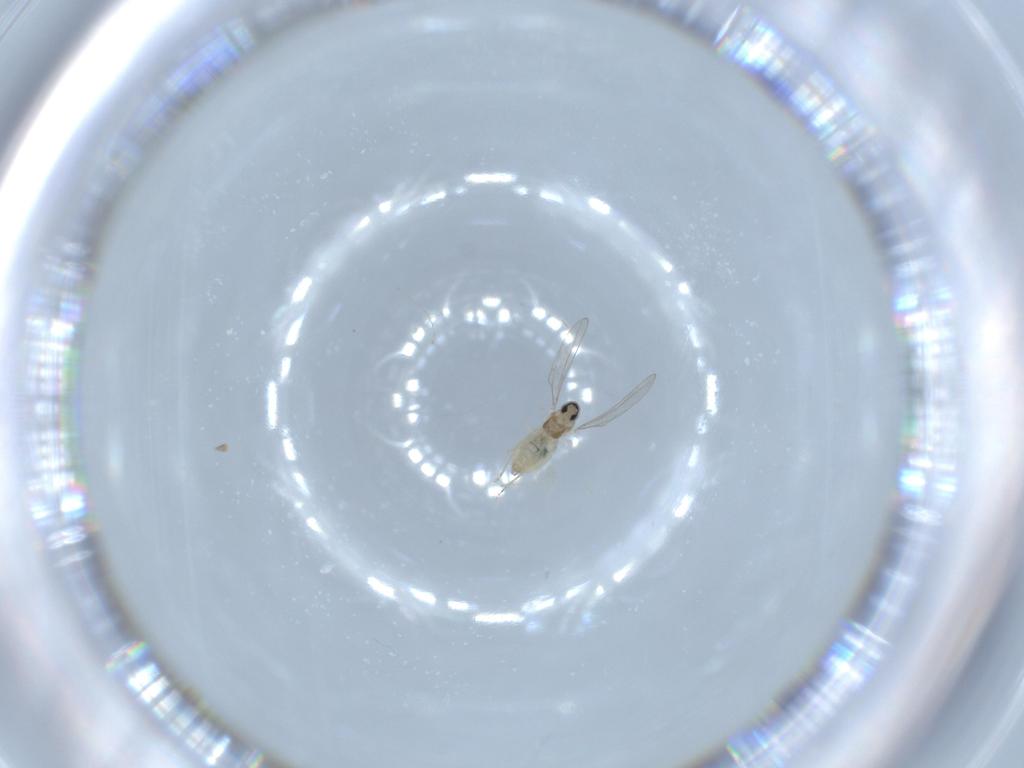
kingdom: Animalia
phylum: Arthropoda
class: Insecta
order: Diptera
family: Cecidomyiidae
